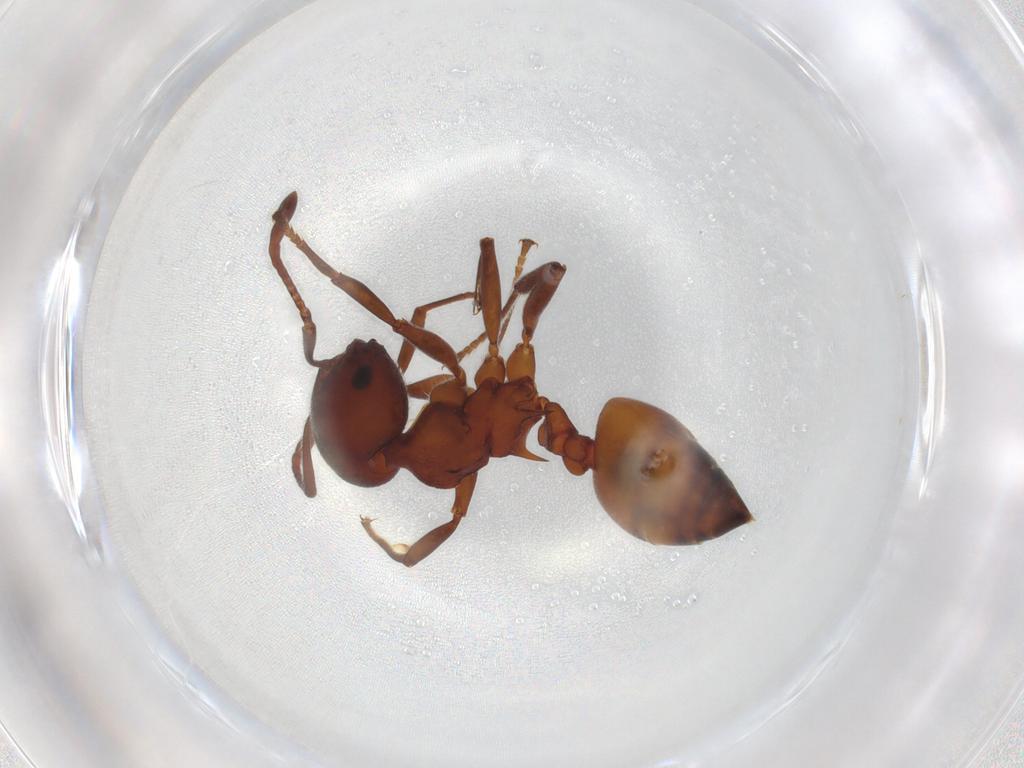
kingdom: Animalia
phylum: Arthropoda
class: Insecta
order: Hymenoptera
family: Formicidae
